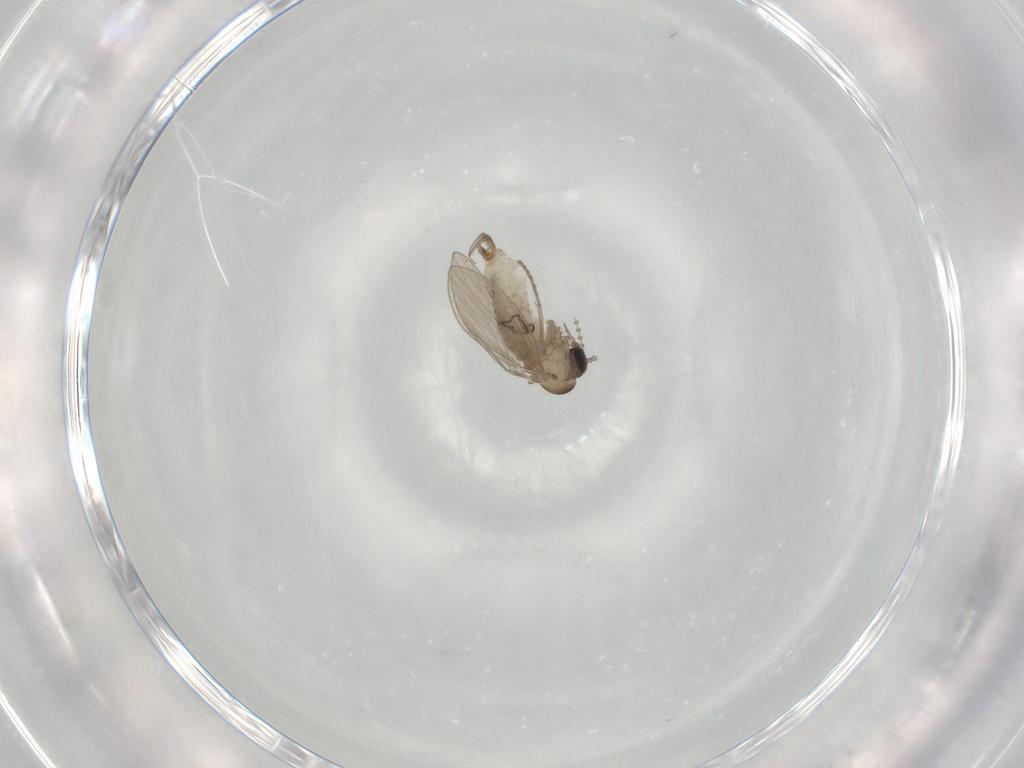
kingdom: Animalia
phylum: Arthropoda
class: Insecta
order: Diptera
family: Psychodidae
